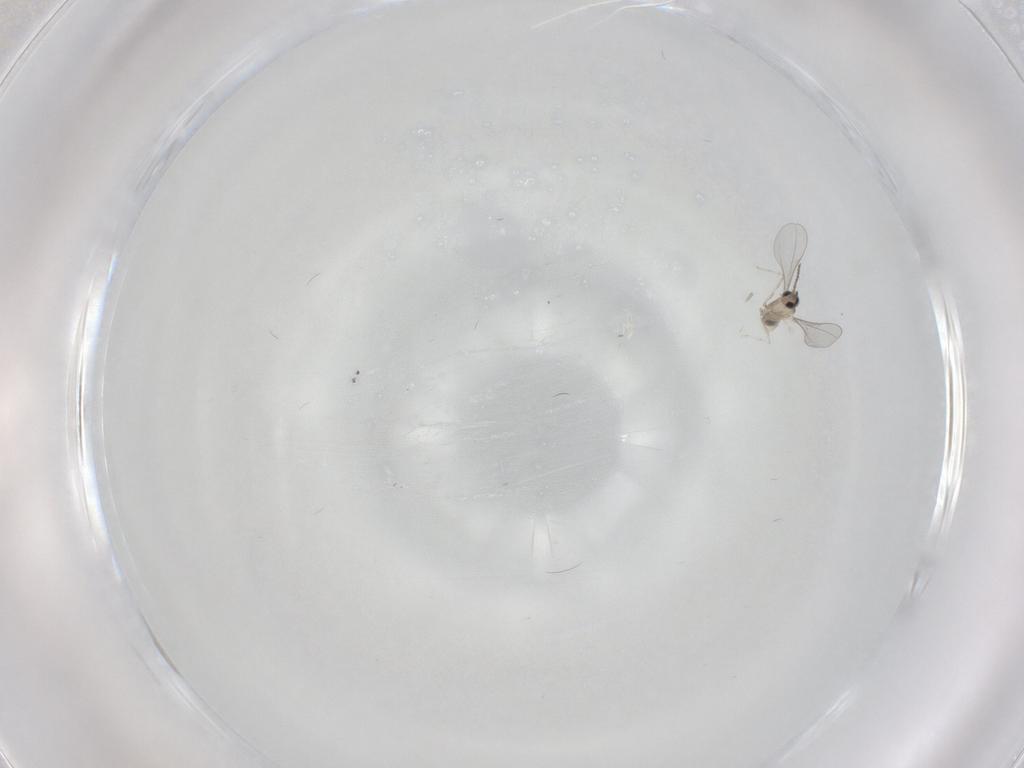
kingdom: Animalia
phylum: Arthropoda
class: Insecta
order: Diptera
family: Cecidomyiidae
